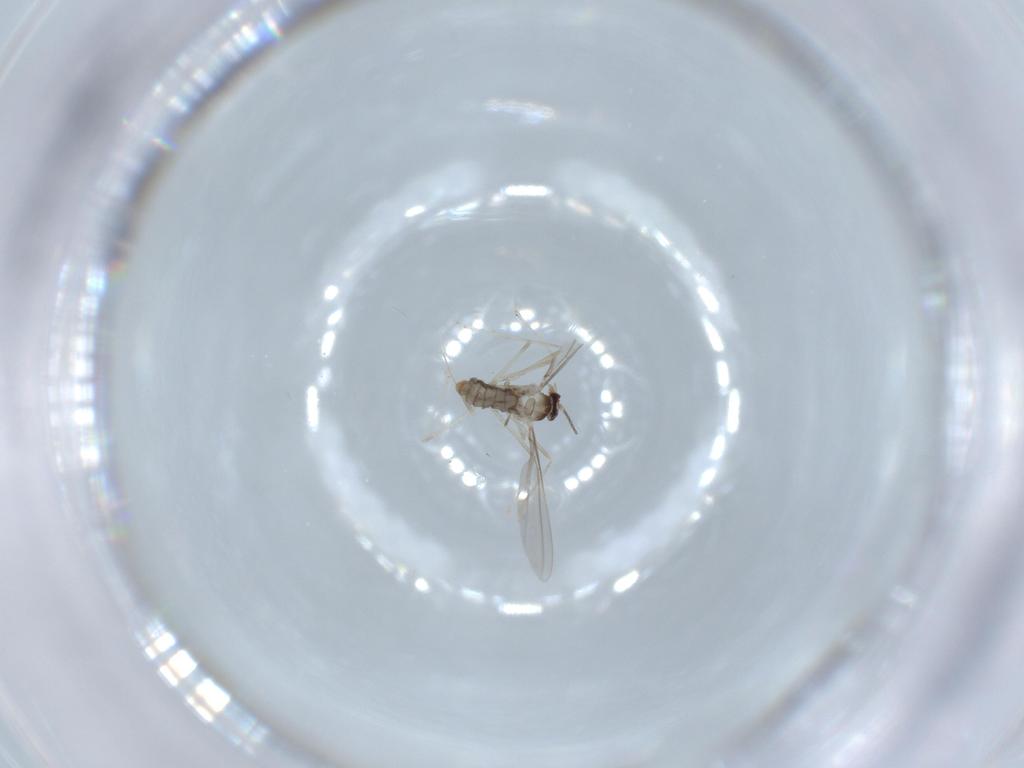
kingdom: Animalia
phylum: Arthropoda
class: Insecta
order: Diptera
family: Cecidomyiidae
